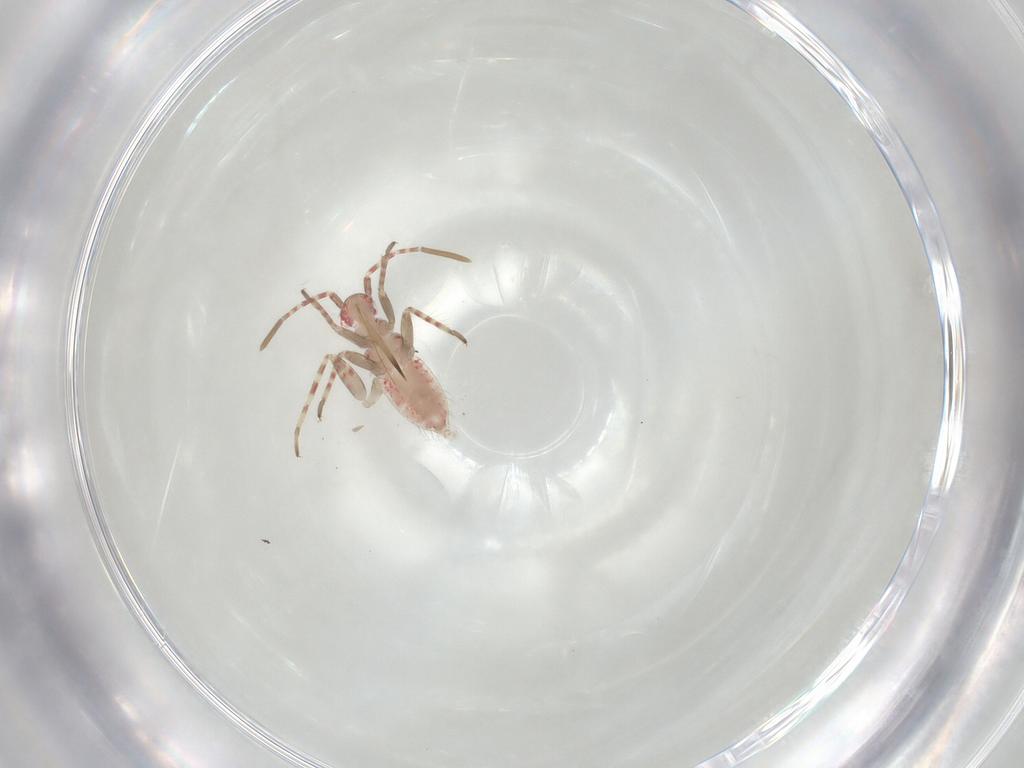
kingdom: Animalia
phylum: Arthropoda
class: Insecta
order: Hemiptera
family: Miridae
